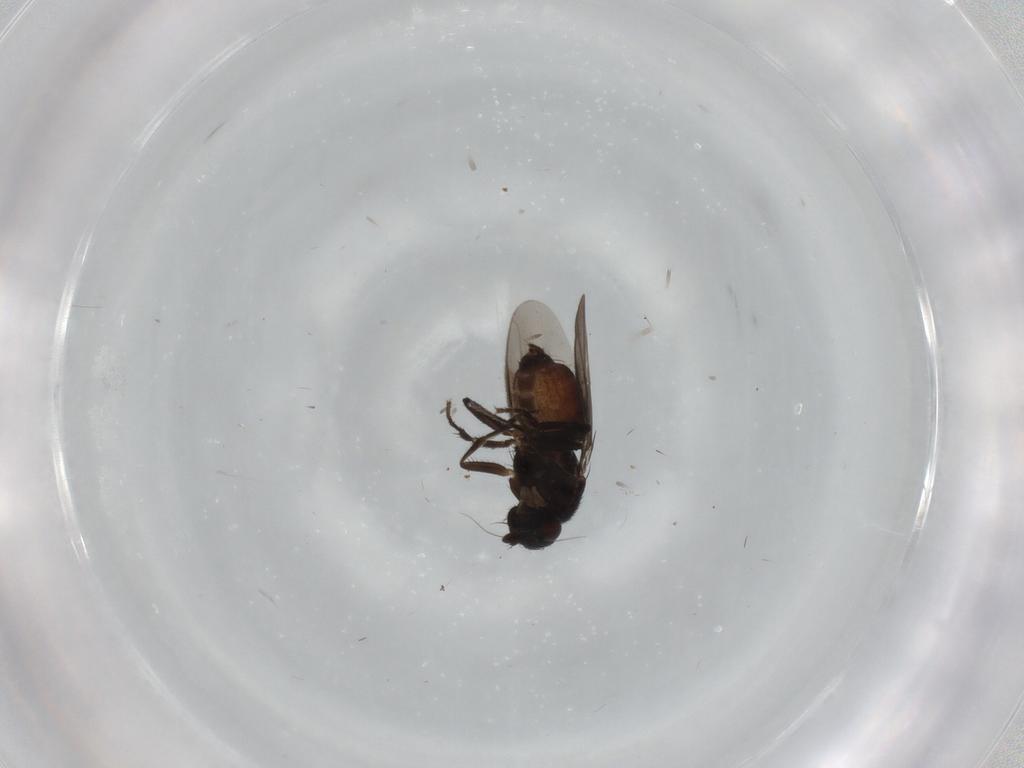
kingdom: Animalia
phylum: Arthropoda
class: Insecta
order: Diptera
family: Sphaeroceridae
